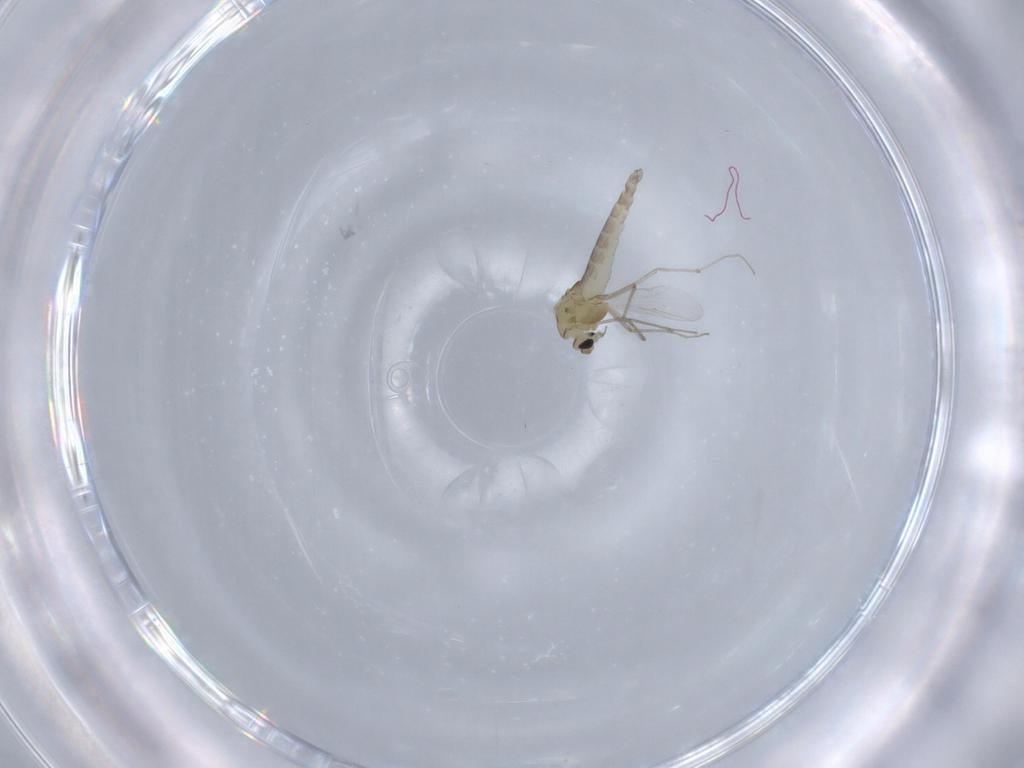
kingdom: Animalia
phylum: Arthropoda
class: Insecta
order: Diptera
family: Chironomidae
